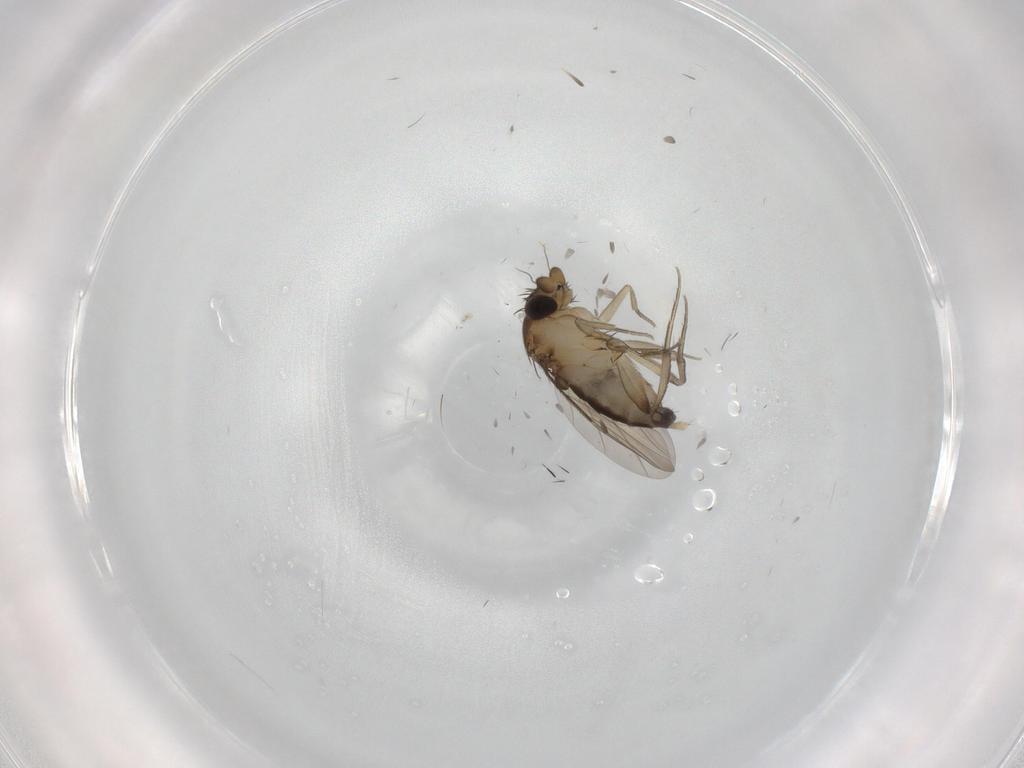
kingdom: Animalia
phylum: Arthropoda
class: Insecta
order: Diptera
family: Phoridae
